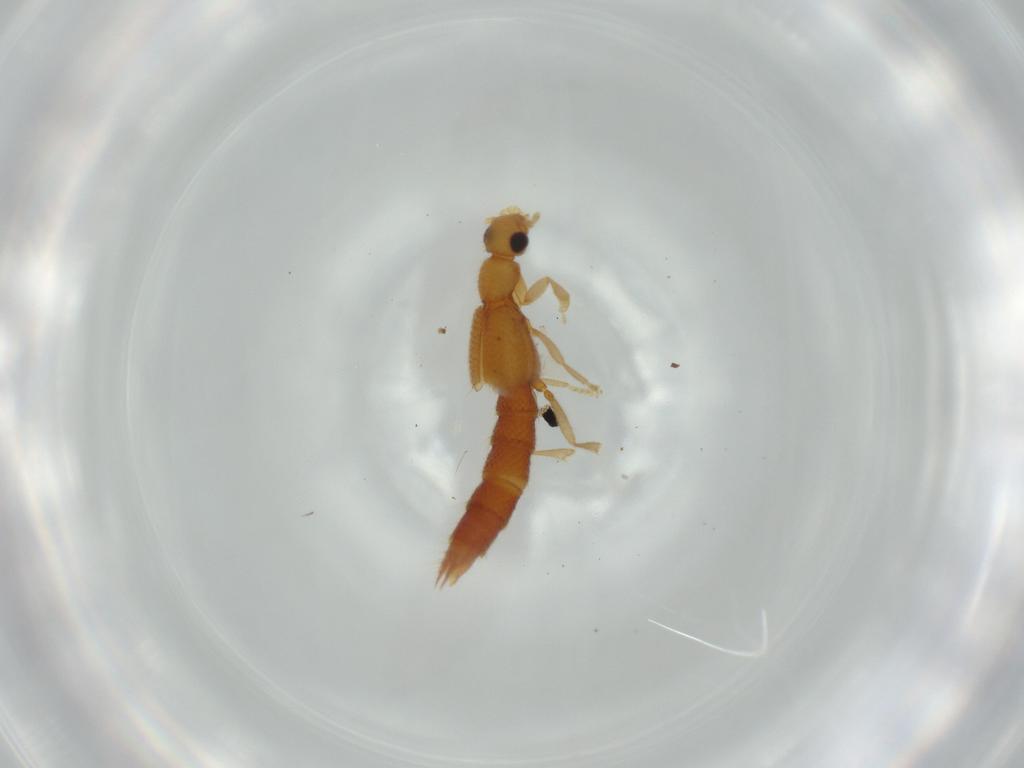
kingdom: Animalia
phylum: Arthropoda
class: Insecta
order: Coleoptera
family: Staphylinidae
